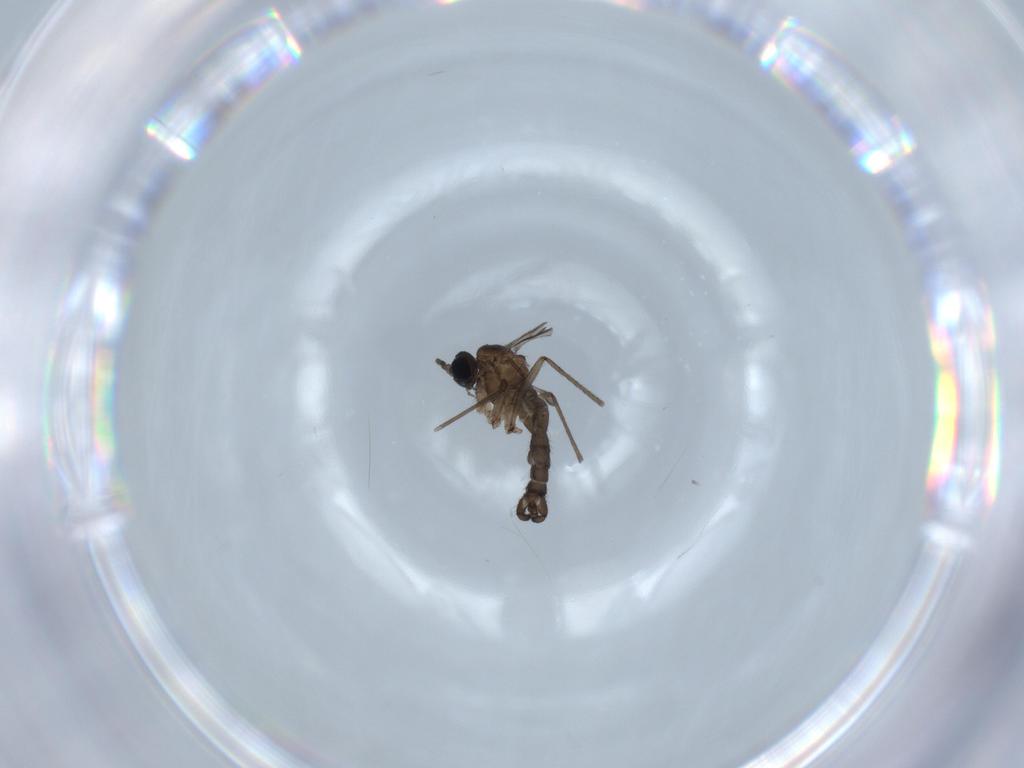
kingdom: Animalia
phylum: Arthropoda
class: Insecta
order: Diptera
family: Sciaridae
